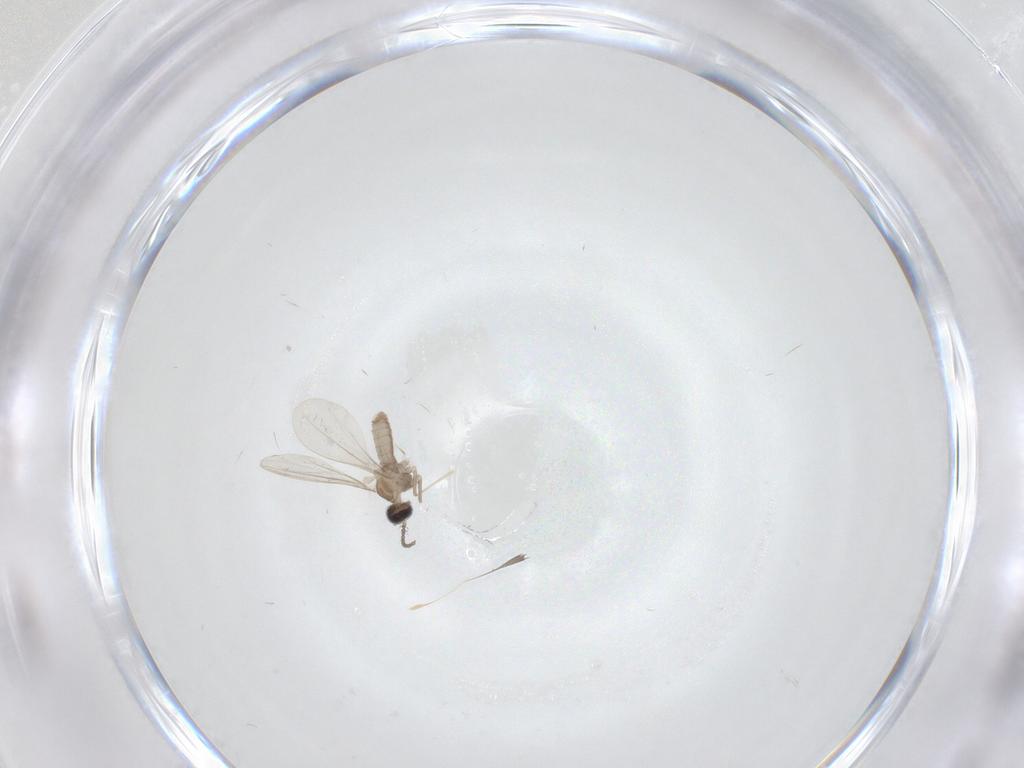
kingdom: Animalia
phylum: Arthropoda
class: Insecta
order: Diptera
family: Cecidomyiidae
